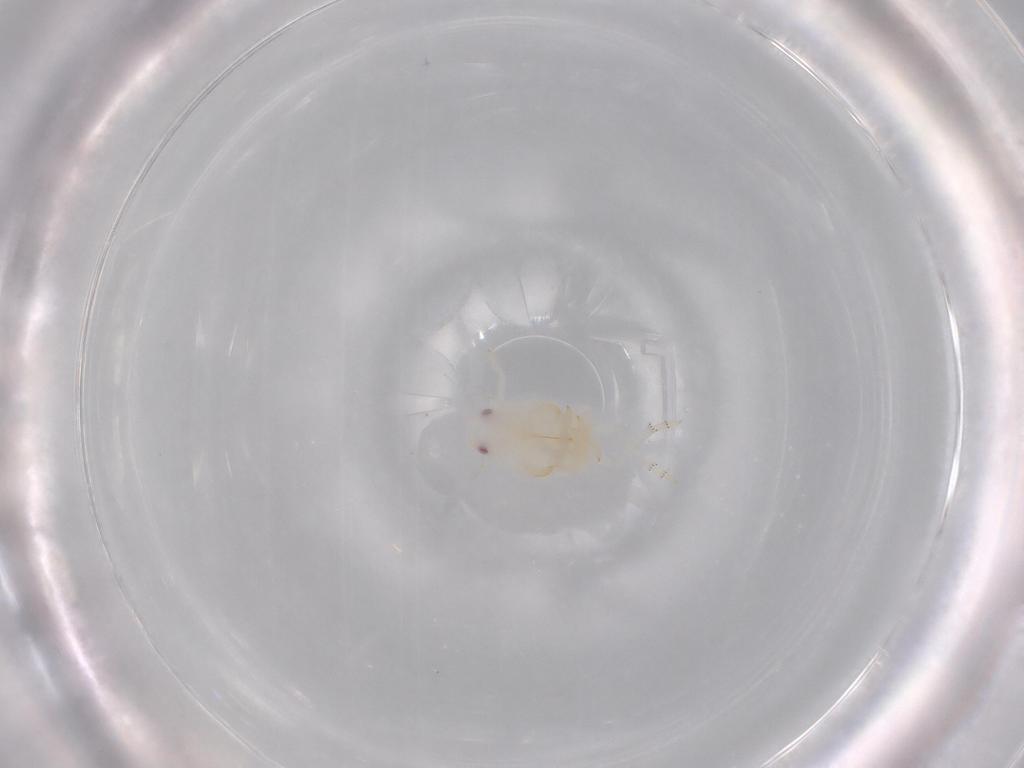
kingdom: Animalia
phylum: Arthropoda
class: Insecta
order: Hemiptera
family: Flatidae
